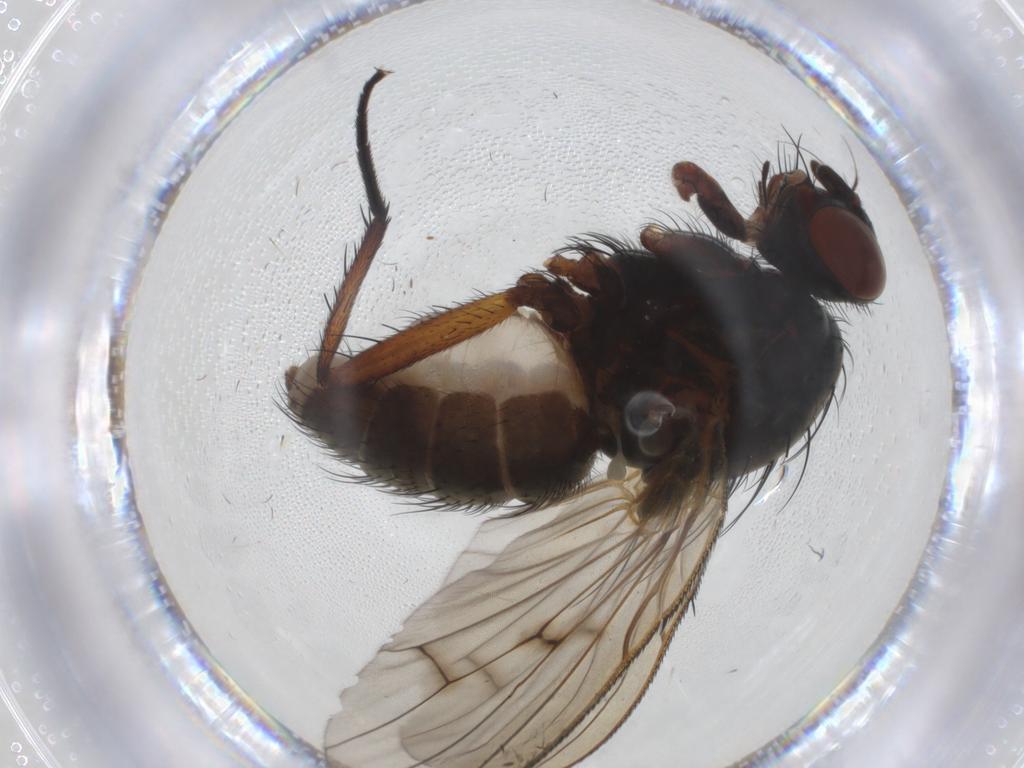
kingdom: Animalia
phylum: Arthropoda
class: Insecta
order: Diptera
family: Anthomyiidae
